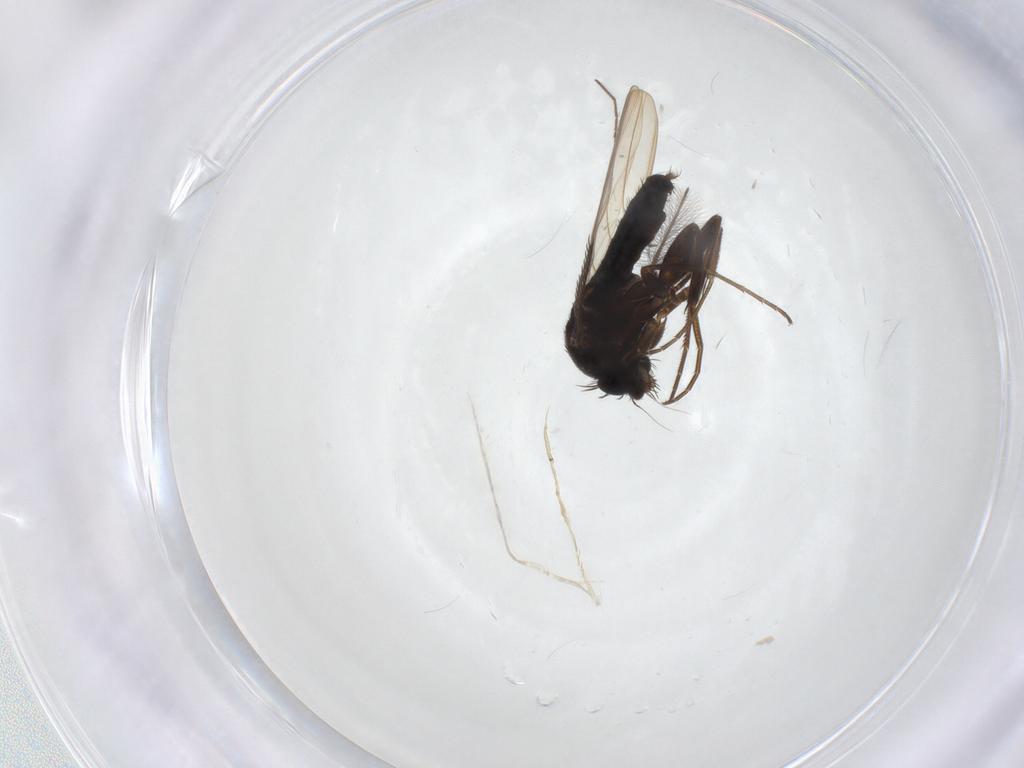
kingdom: Animalia
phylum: Arthropoda
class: Insecta
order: Diptera
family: Phoridae
